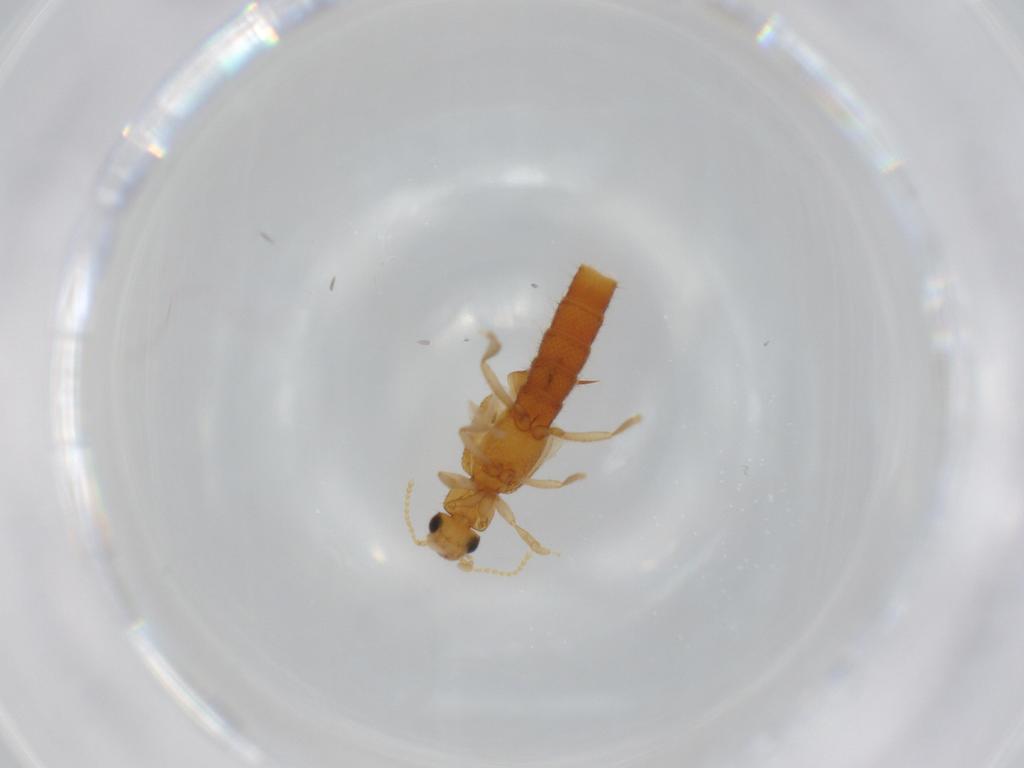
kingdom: Animalia
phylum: Arthropoda
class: Insecta
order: Coleoptera
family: Staphylinidae
